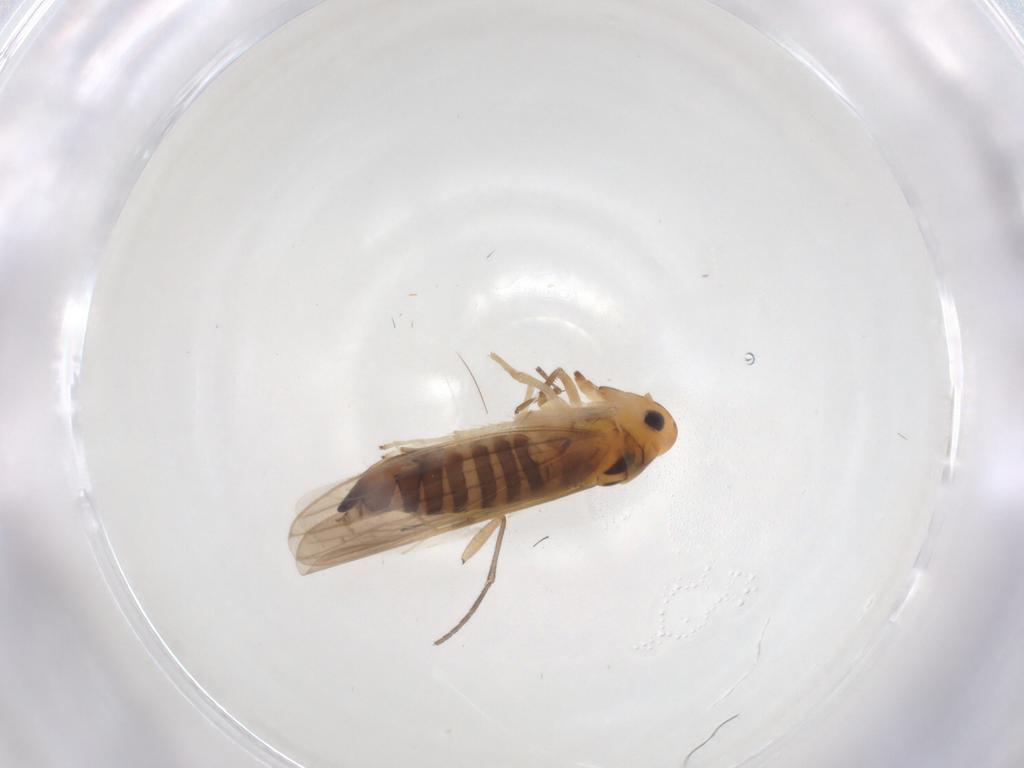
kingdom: Animalia
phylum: Arthropoda
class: Insecta
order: Hemiptera
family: Cicadellidae
